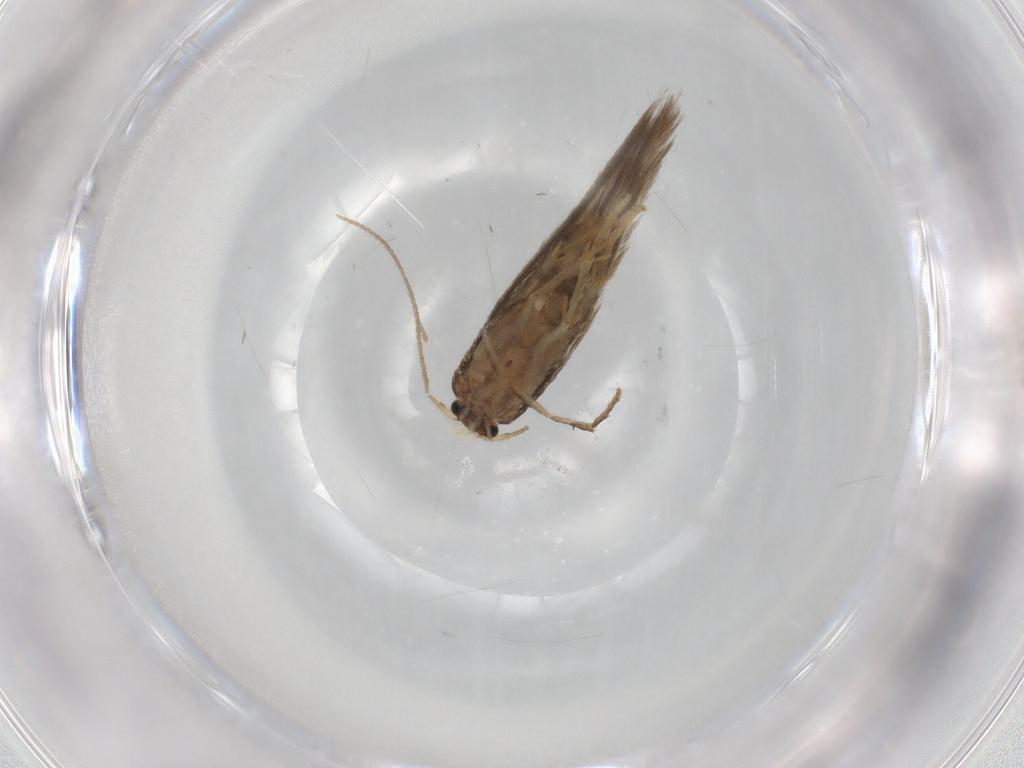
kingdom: Animalia
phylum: Arthropoda
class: Insecta
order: Lepidoptera
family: Nepticulidae
